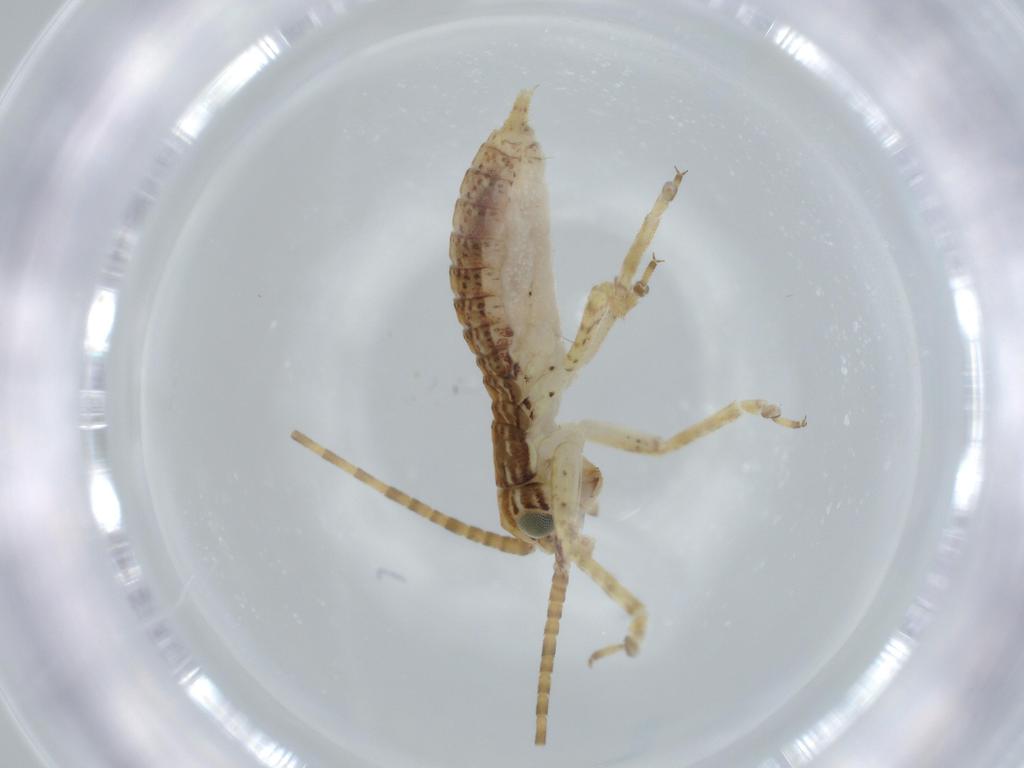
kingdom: Animalia
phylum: Arthropoda
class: Insecta
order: Orthoptera
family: Gryllidae
